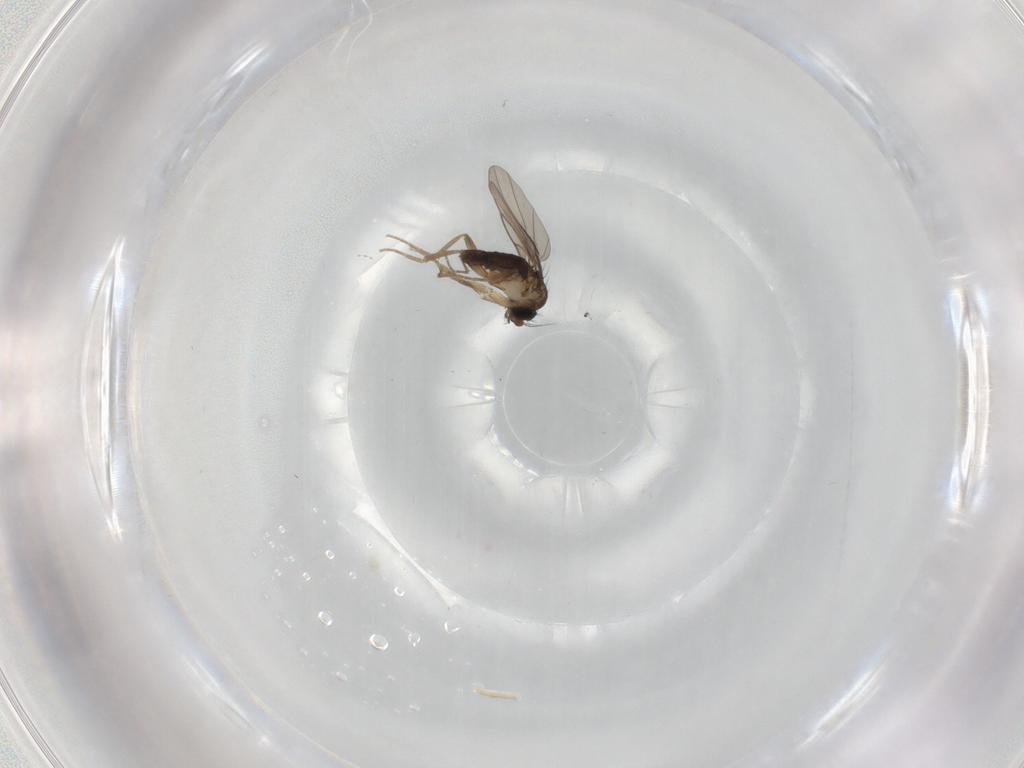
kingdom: Animalia
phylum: Arthropoda
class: Insecta
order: Diptera
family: Phoridae
